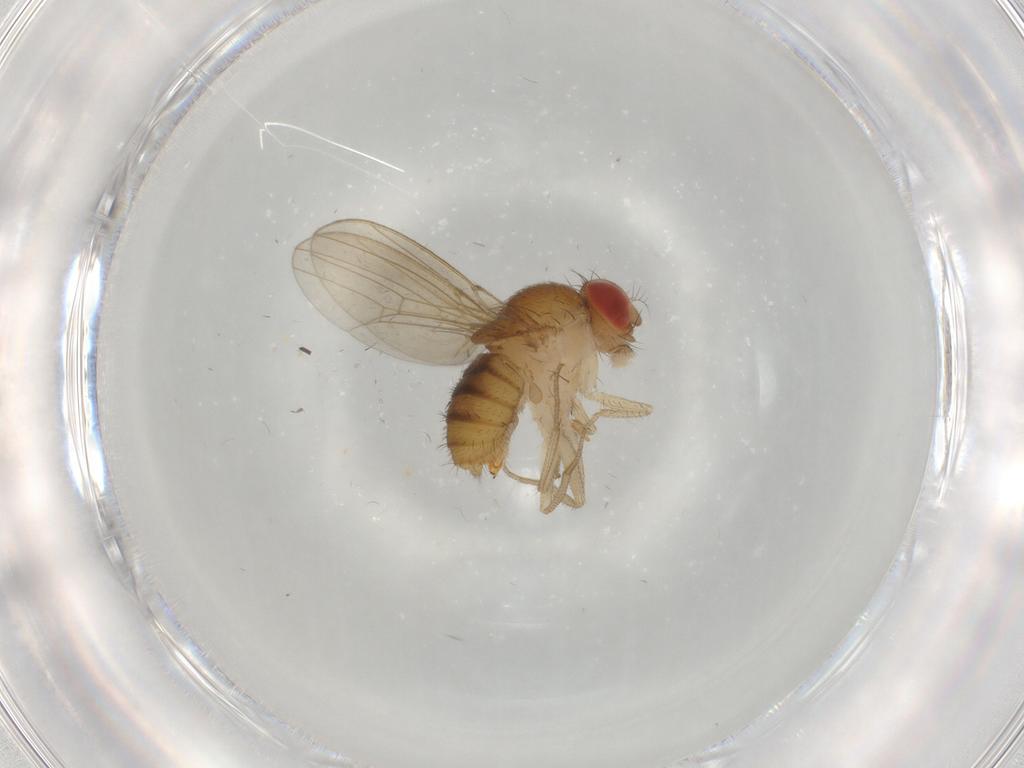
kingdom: Animalia
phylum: Arthropoda
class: Insecta
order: Diptera
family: Drosophilidae
